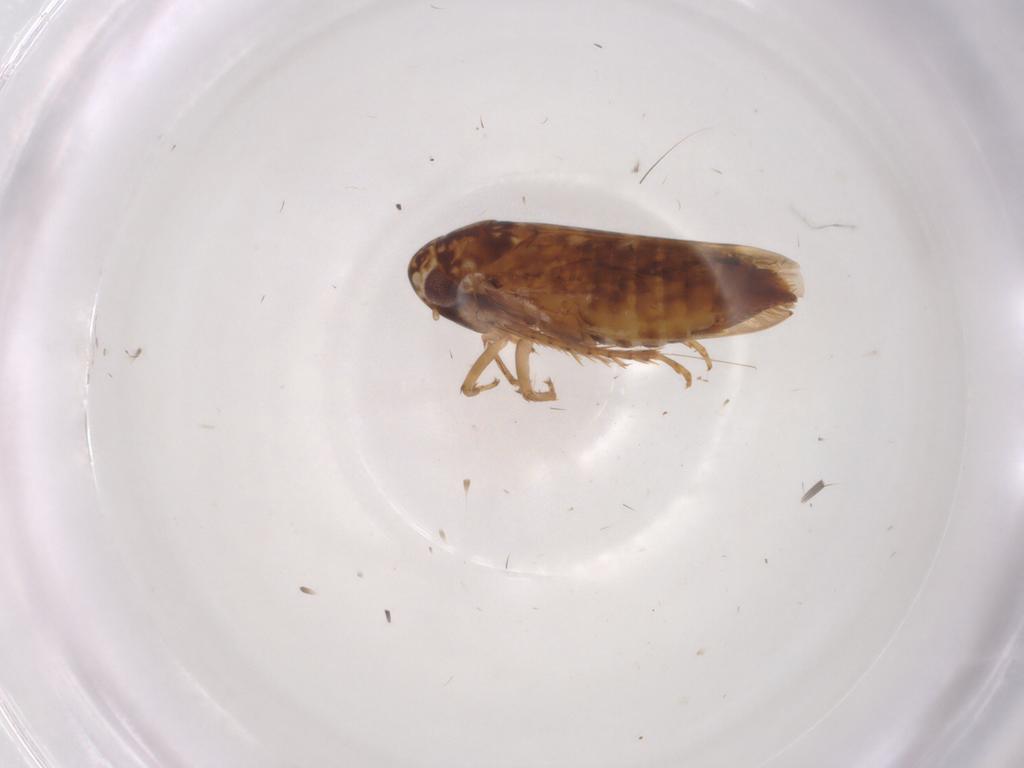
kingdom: Animalia
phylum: Arthropoda
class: Insecta
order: Hemiptera
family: Cicadellidae
